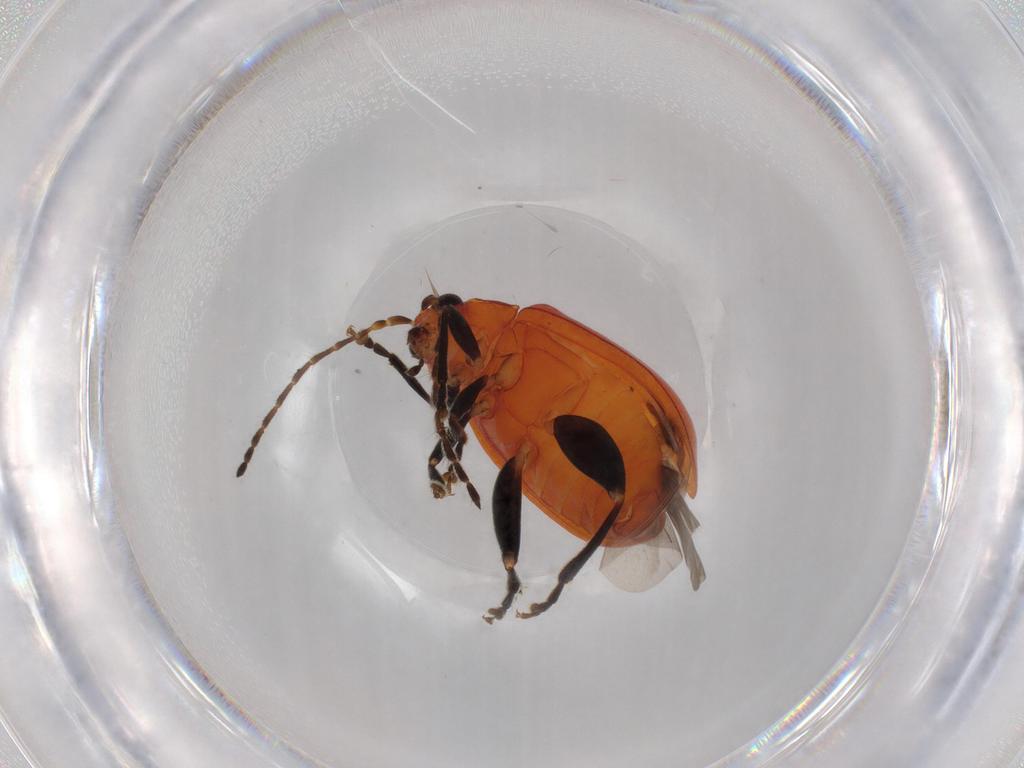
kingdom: Animalia
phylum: Arthropoda
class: Insecta
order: Coleoptera
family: Chrysomelidae
